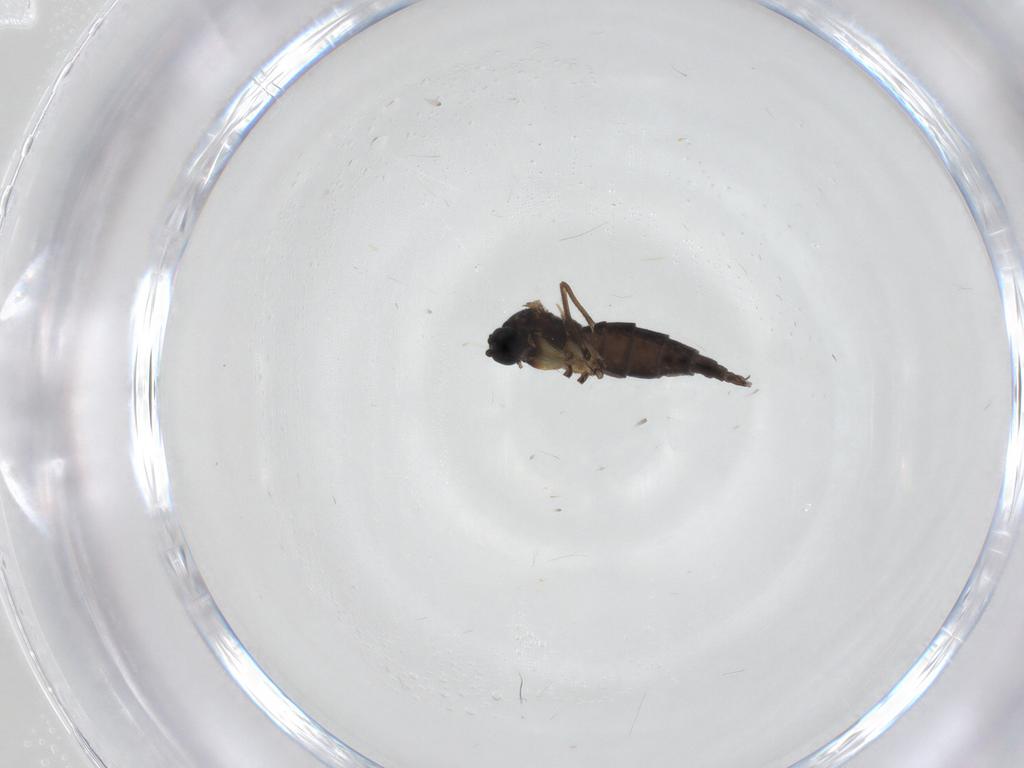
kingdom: Animalia
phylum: Arthropoda
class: Insecta
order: Diptera
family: Sciaridae
